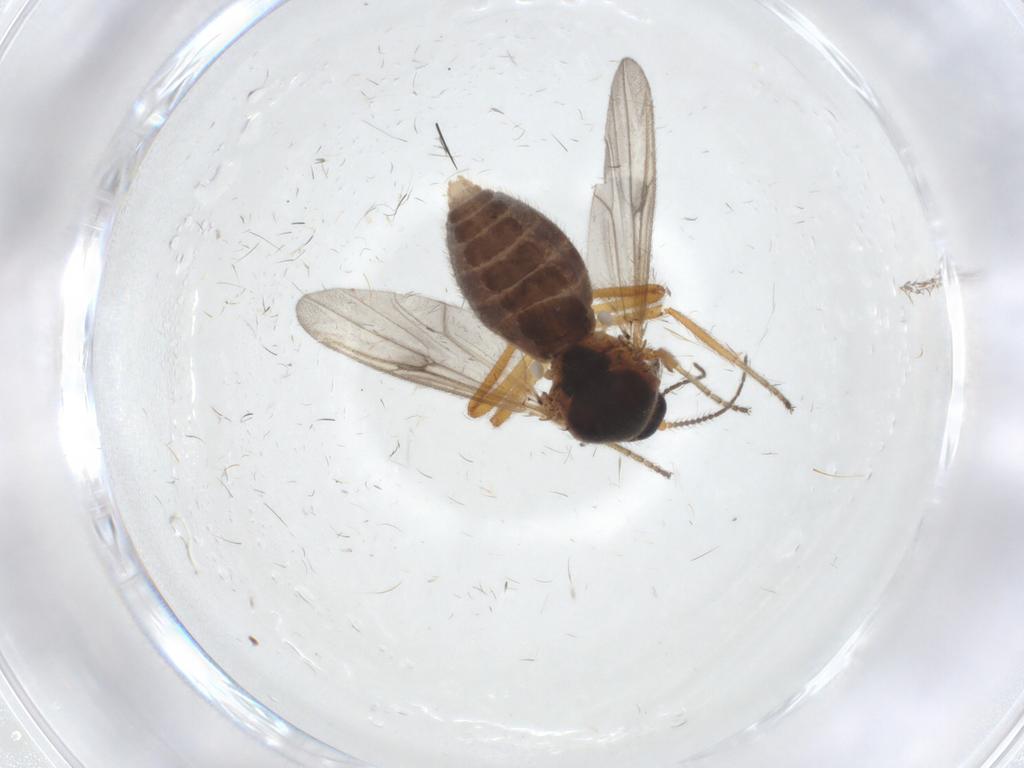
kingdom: Animalia
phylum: Arthropoda
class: Insecta
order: Diptera
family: Ceratopogonidae
